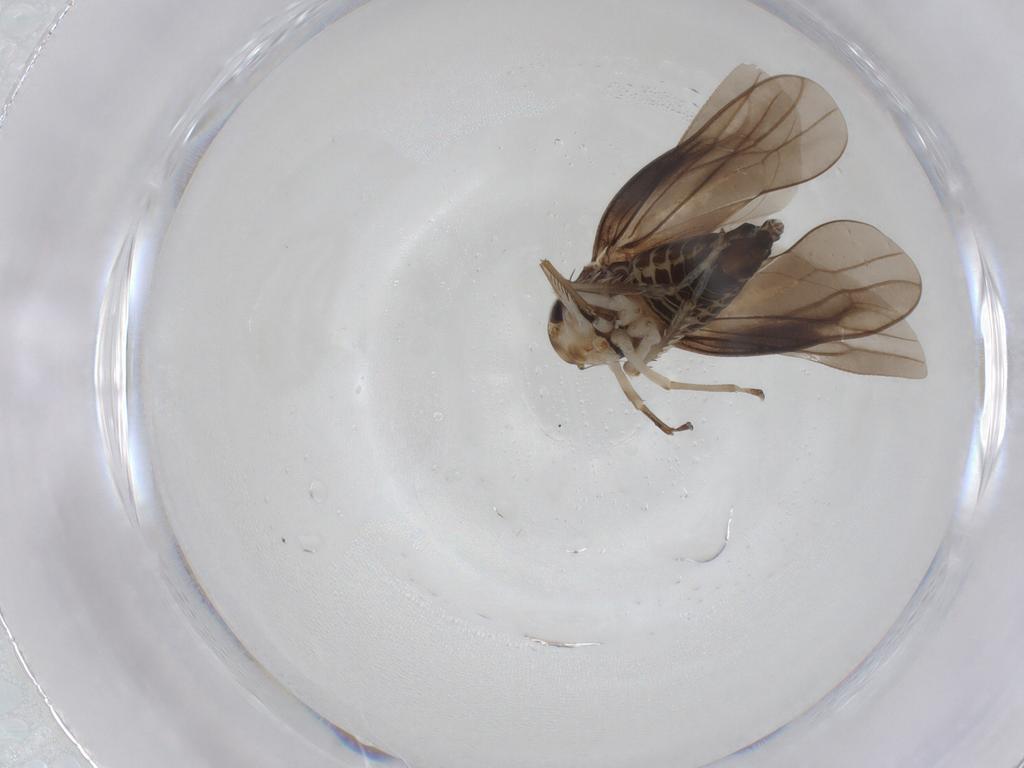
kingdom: Animalia
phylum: Arthropoda
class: Insecta
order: Hemiptera
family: Cicadellidae
